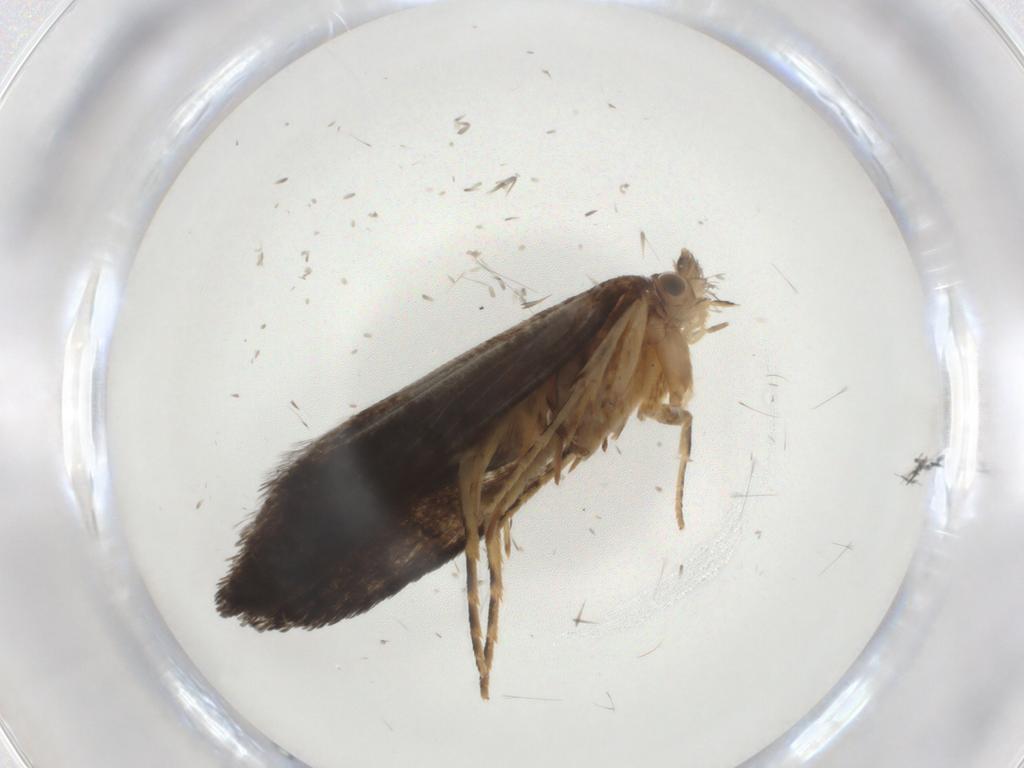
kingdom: Animalia
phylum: Arthropoda
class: Insecta
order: Lepidoptera
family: Tineidae
